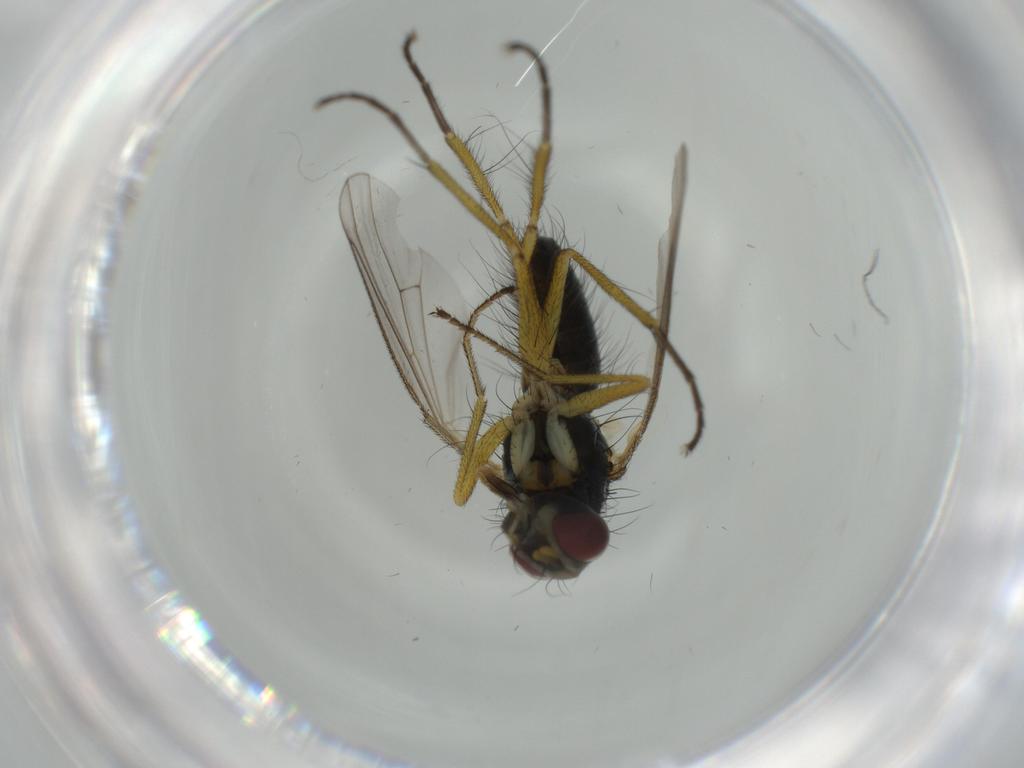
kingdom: Animalia
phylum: Arthropoda
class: Insecta
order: Diptera
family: Muscidae
